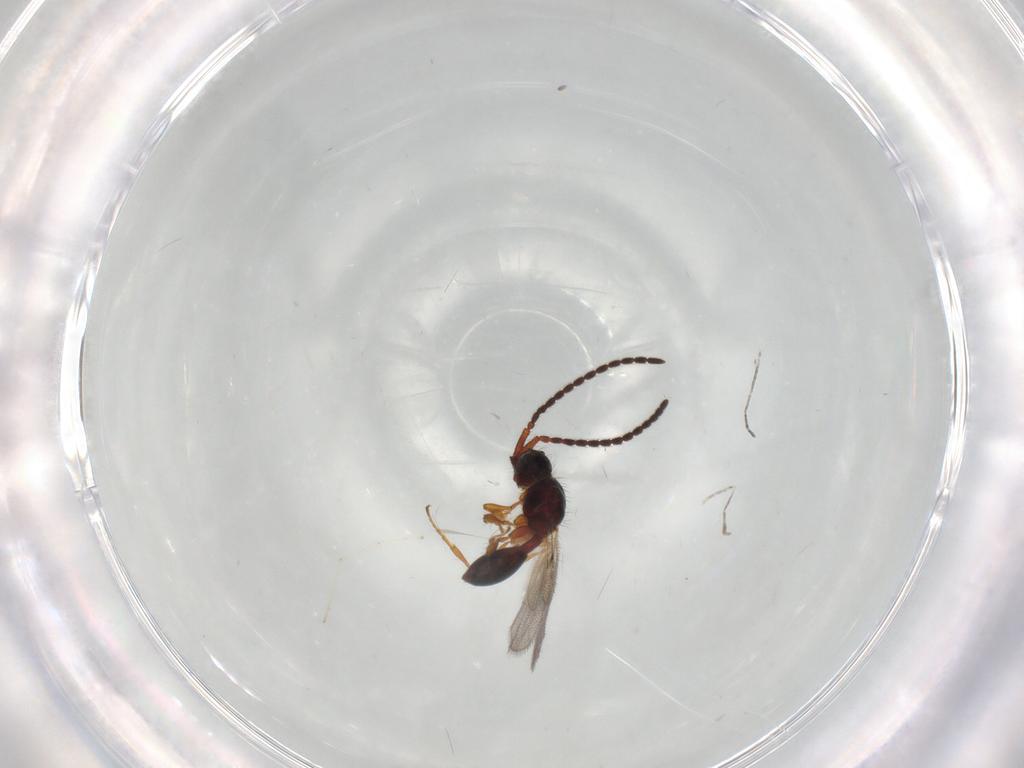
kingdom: Animalia
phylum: Arthropoda
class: Insecta
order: Hymenoptera
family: Diapriidae
